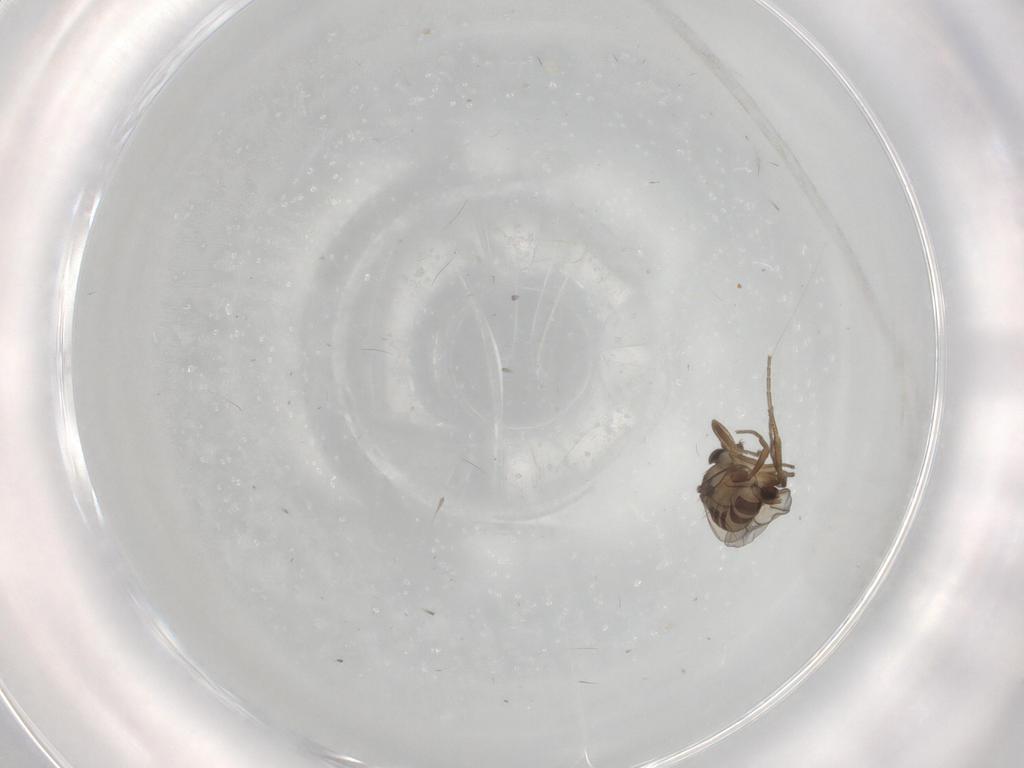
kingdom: Animalia
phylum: Arthropoda
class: Insecta
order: Diptera
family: Phoridae
